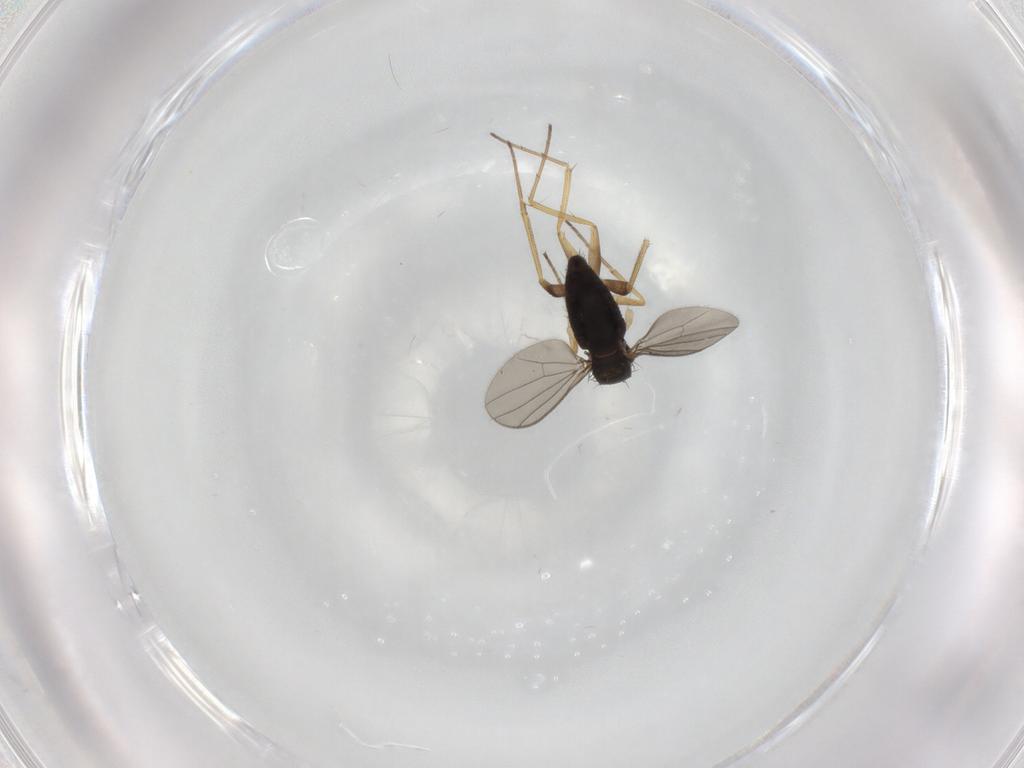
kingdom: Animalia
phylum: Arthropoda
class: Insecta
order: Diptera
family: Dolichopodidae
